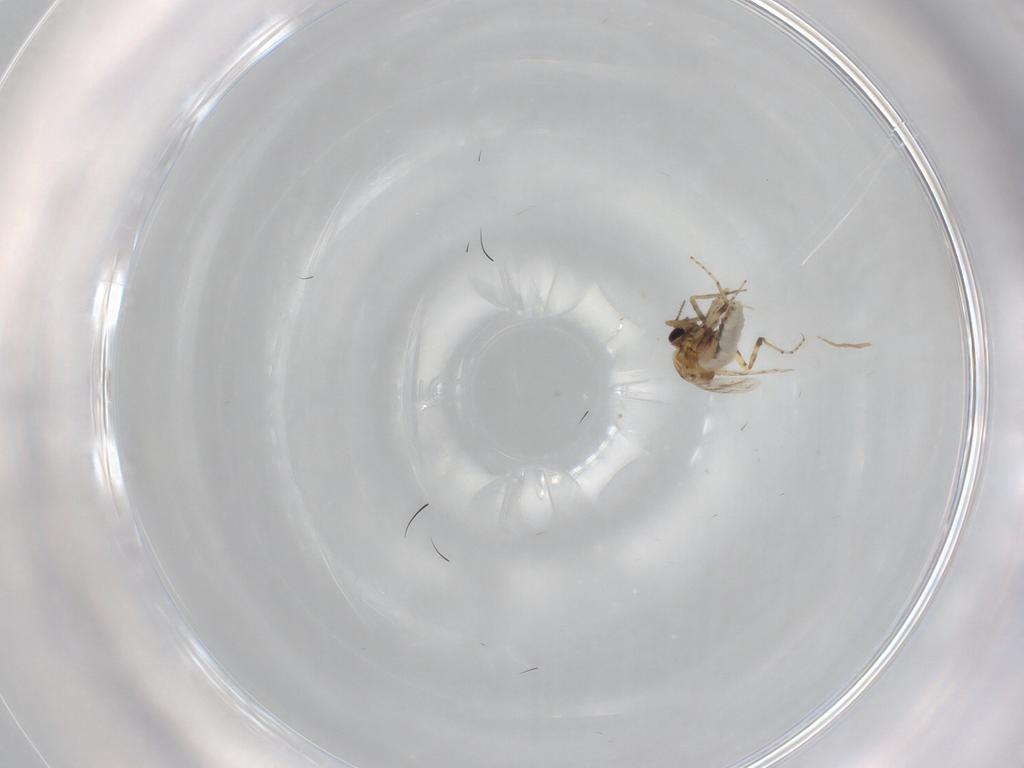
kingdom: Animalia
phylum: Arthropoda
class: Insecta
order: Diptera
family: Ceratopogonidae
